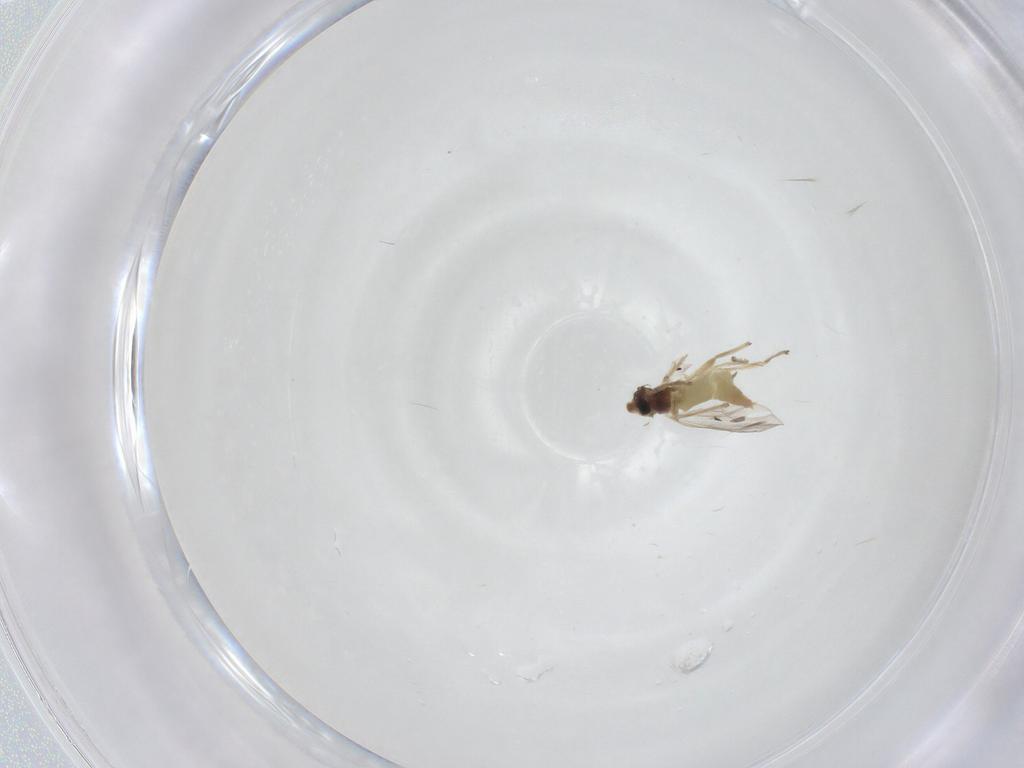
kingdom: Animalia
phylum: Arthropoda
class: Insecta
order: Diptera
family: Chironomidae
